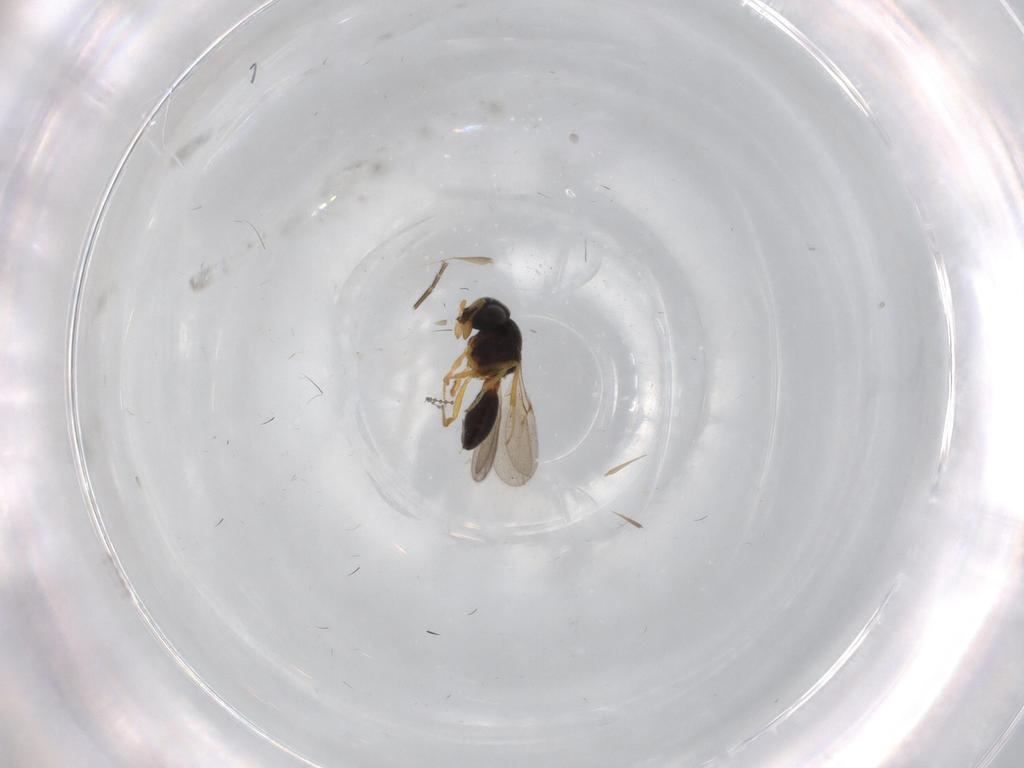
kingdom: Animalia
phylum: Arthropoda
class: Insecta
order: Hymenoptera
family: Scelionidae
